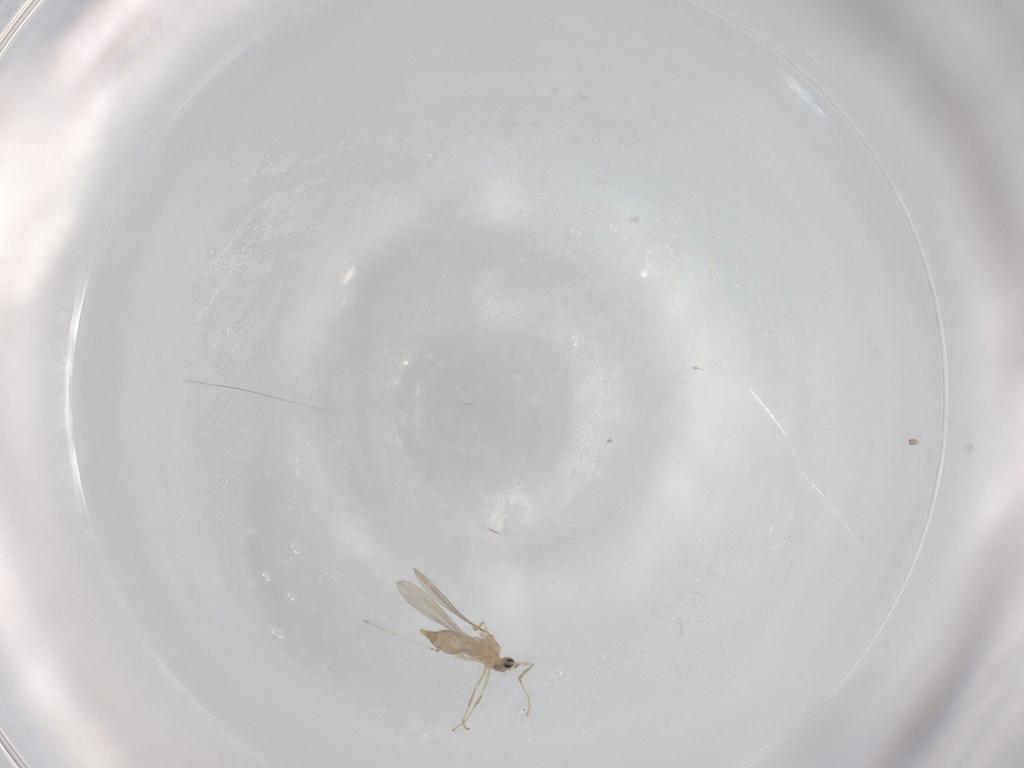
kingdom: Animalia
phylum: Arthropoda
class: Insecta
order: Diptera
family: Cecidomyiidae
